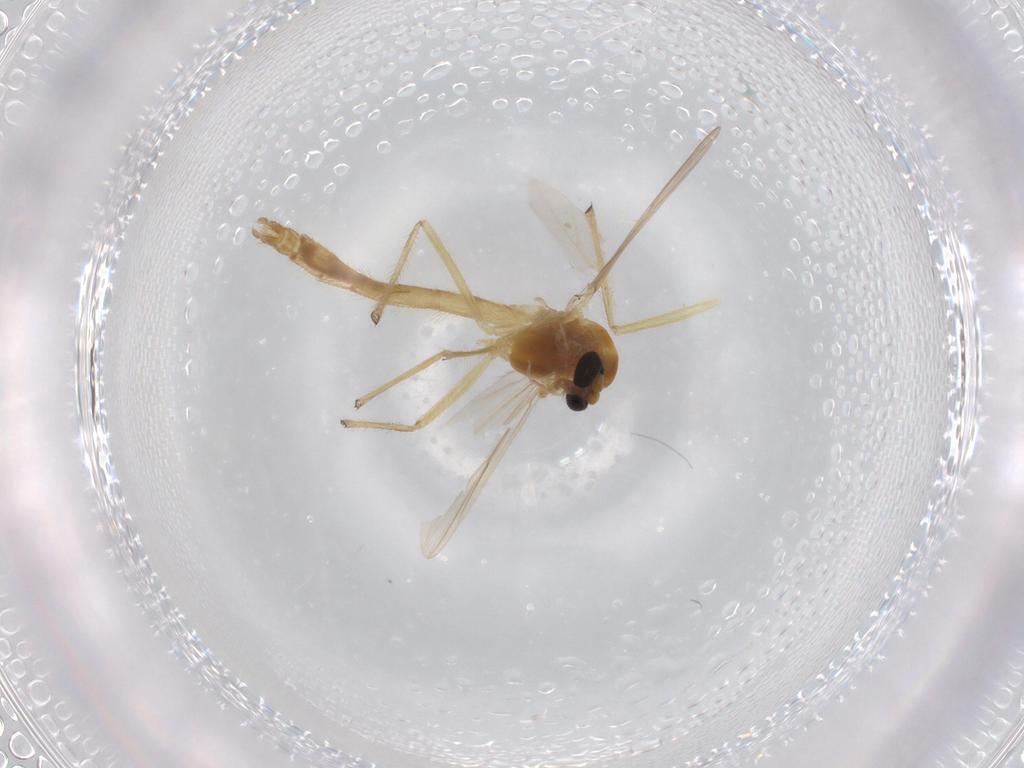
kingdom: Animalia
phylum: Arthropoda
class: Insecta
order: Diptera
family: Chironomidae
